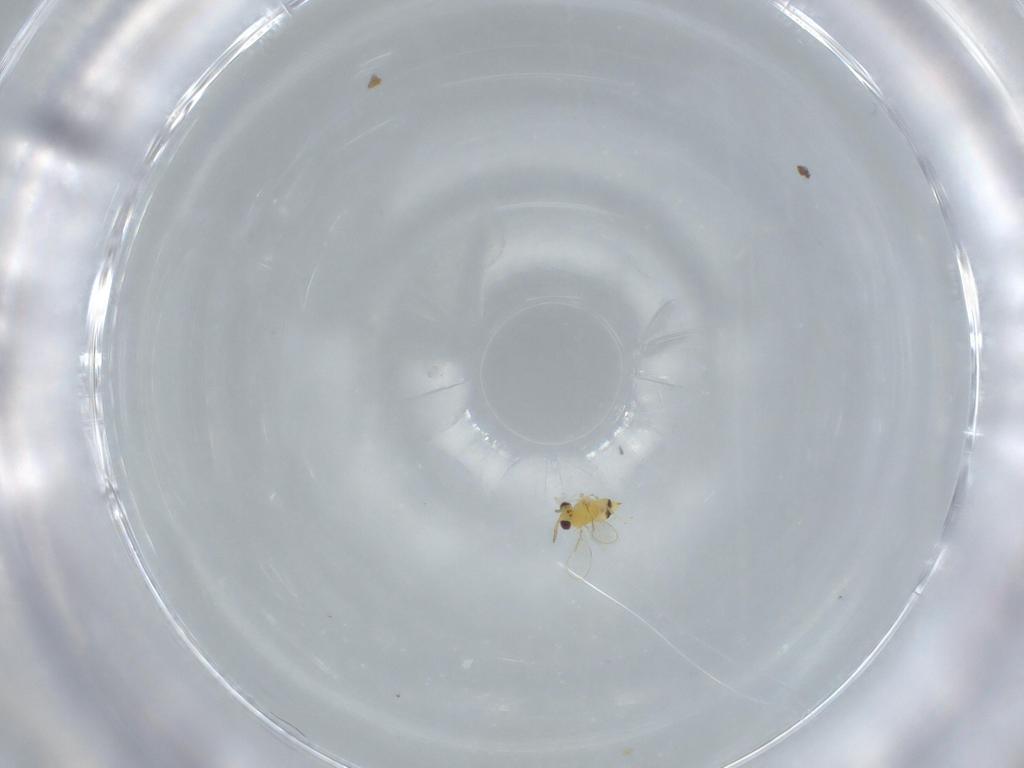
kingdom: Animalia
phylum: Arthropoda
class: Insecta
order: Hymenoptera
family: Aphelinidae
